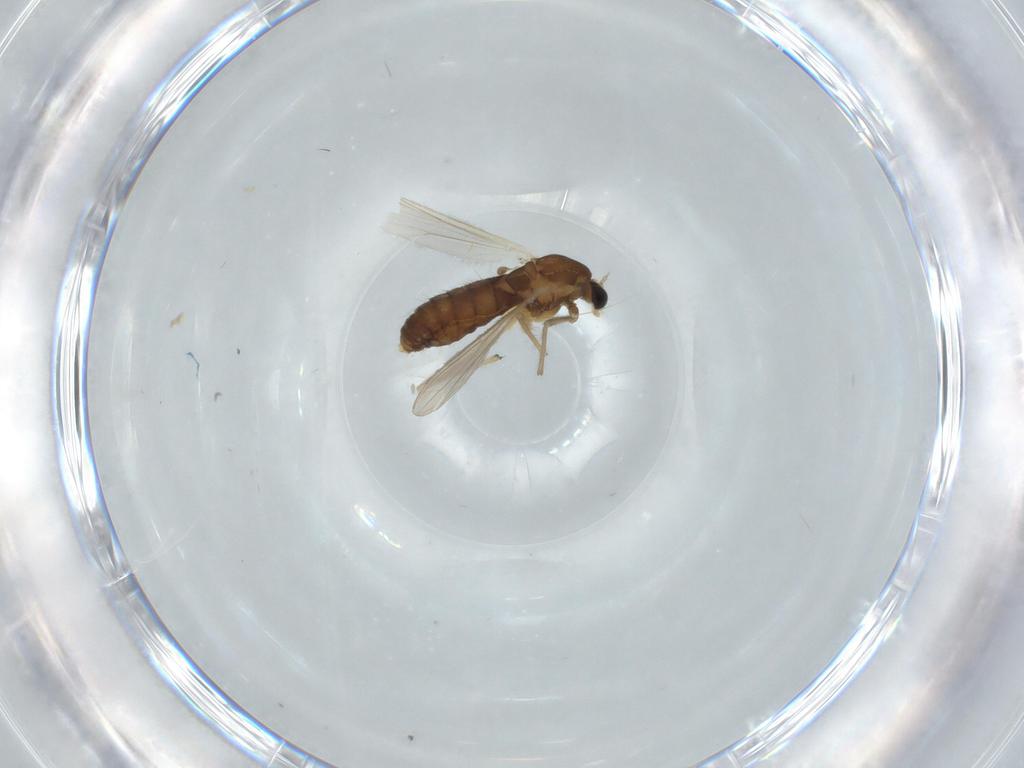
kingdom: Animalia
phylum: Arthropoda
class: Insecta
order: Diptera
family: Chironomidae
